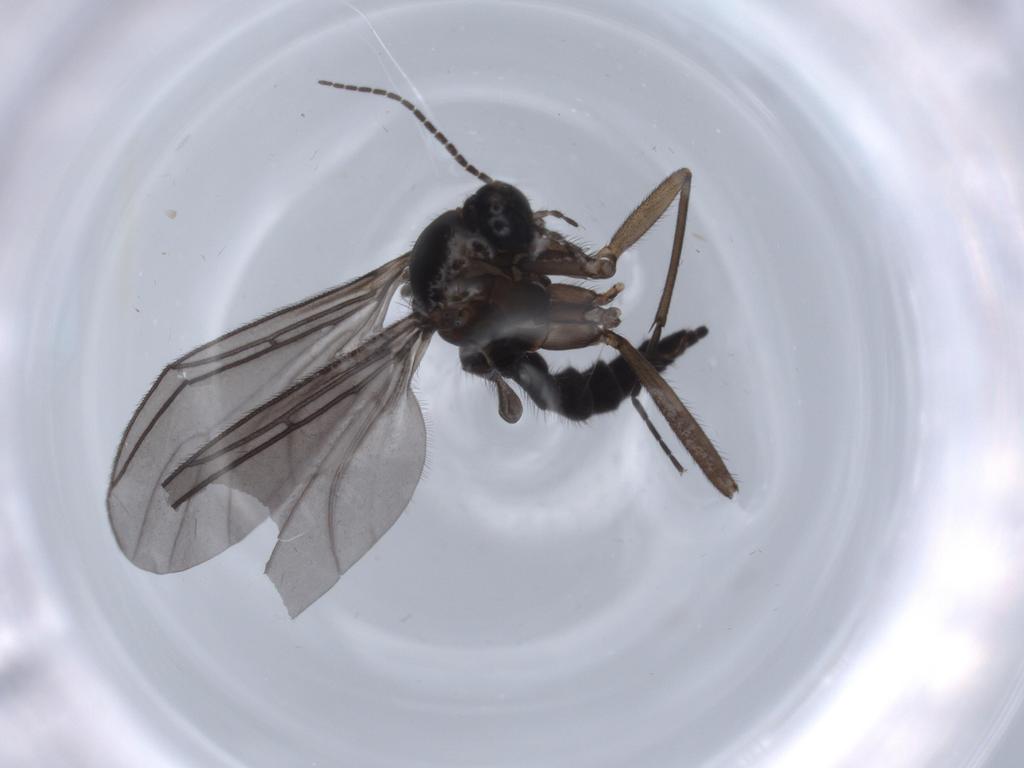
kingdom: Animalia
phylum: Arthropoda
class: Insecta
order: Diptera
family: Sciaridae
